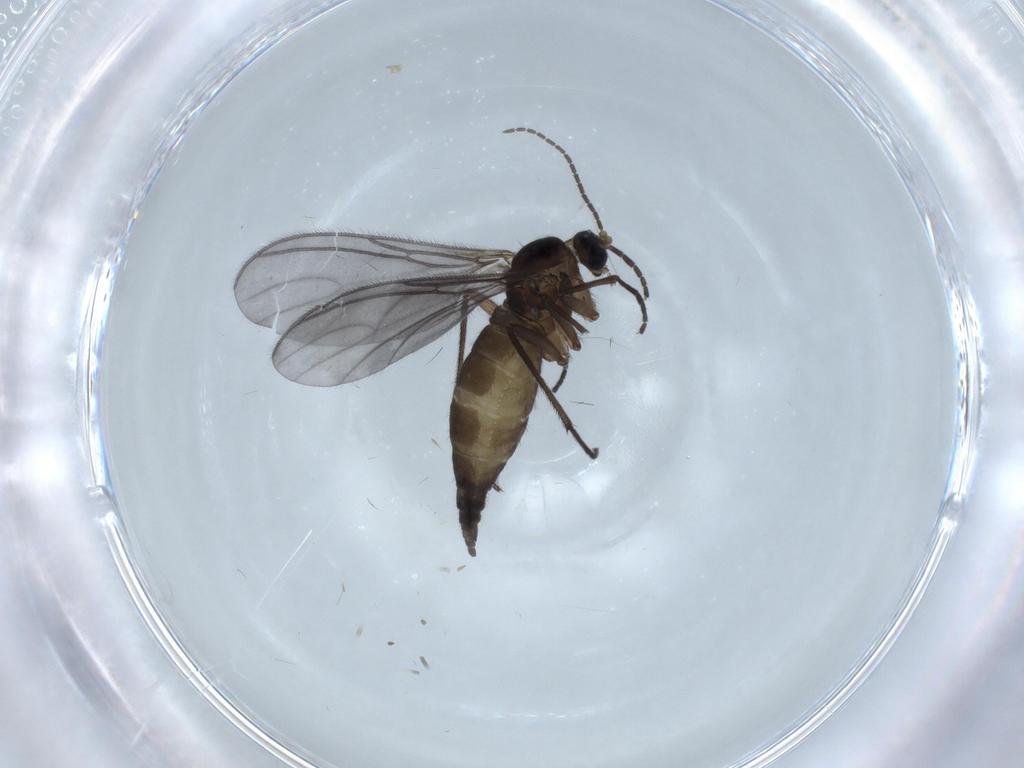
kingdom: Animalia
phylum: Arthropoda
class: Insecta
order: Diptera
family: Sciaridae
